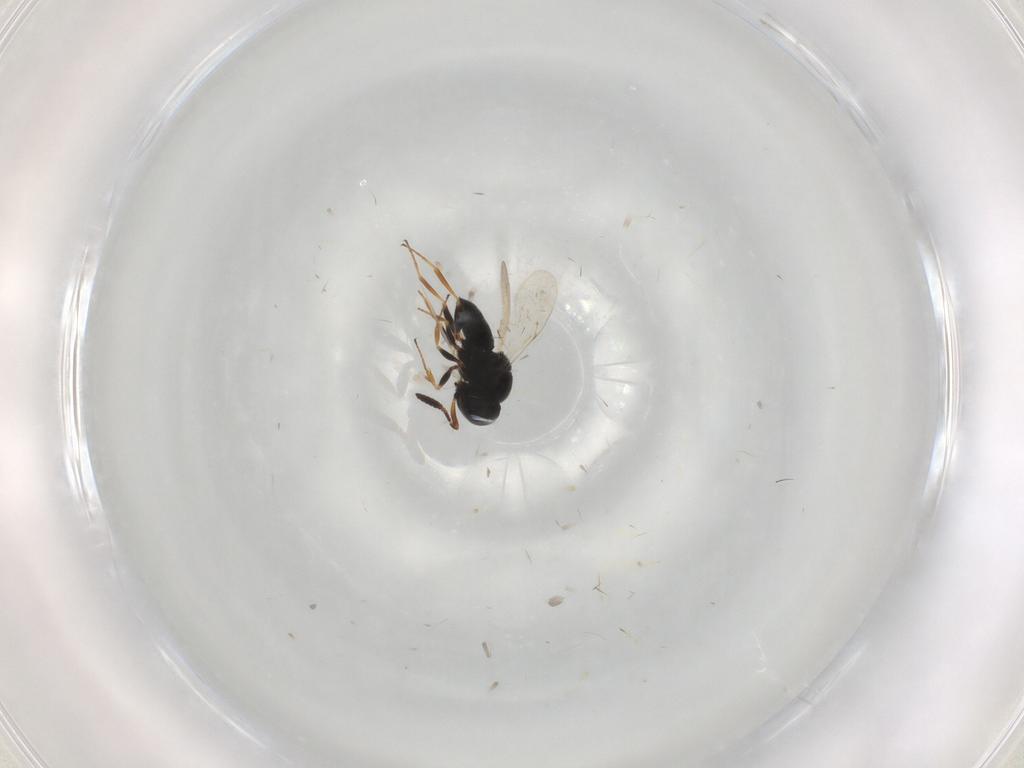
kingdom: Animalia
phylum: Arthropoda
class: Insecta
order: Coleoptera
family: Curculionidae
